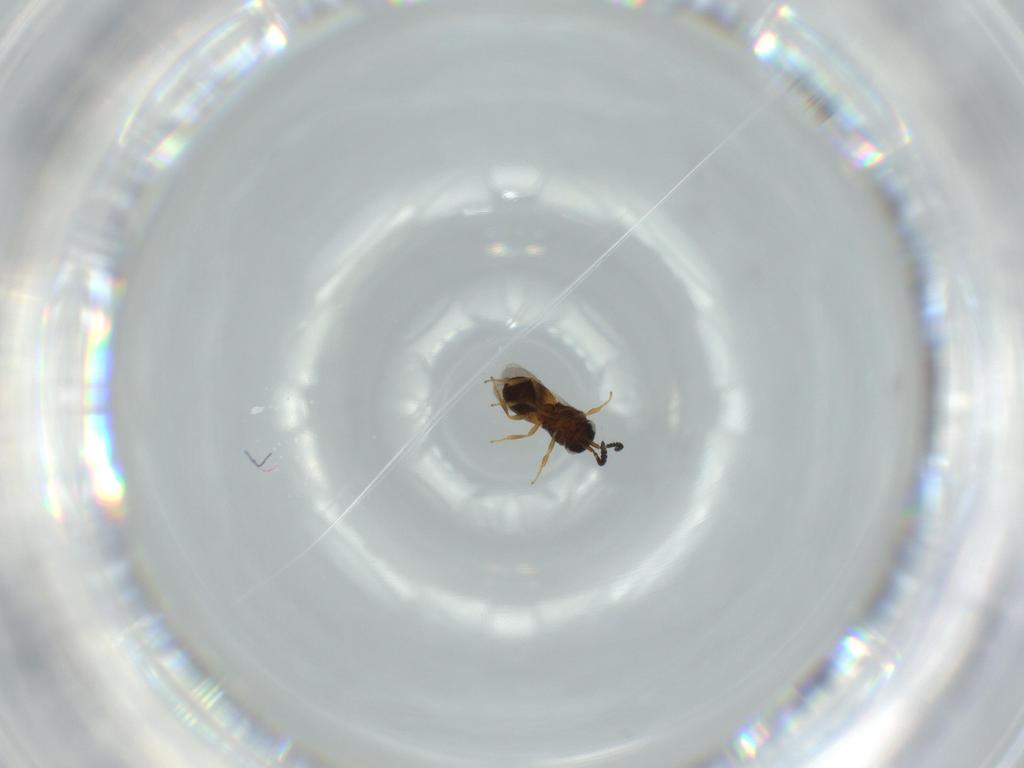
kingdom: Animalia
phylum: Arthropoda
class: Insecta
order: Hymenoptera
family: Scelionidae
